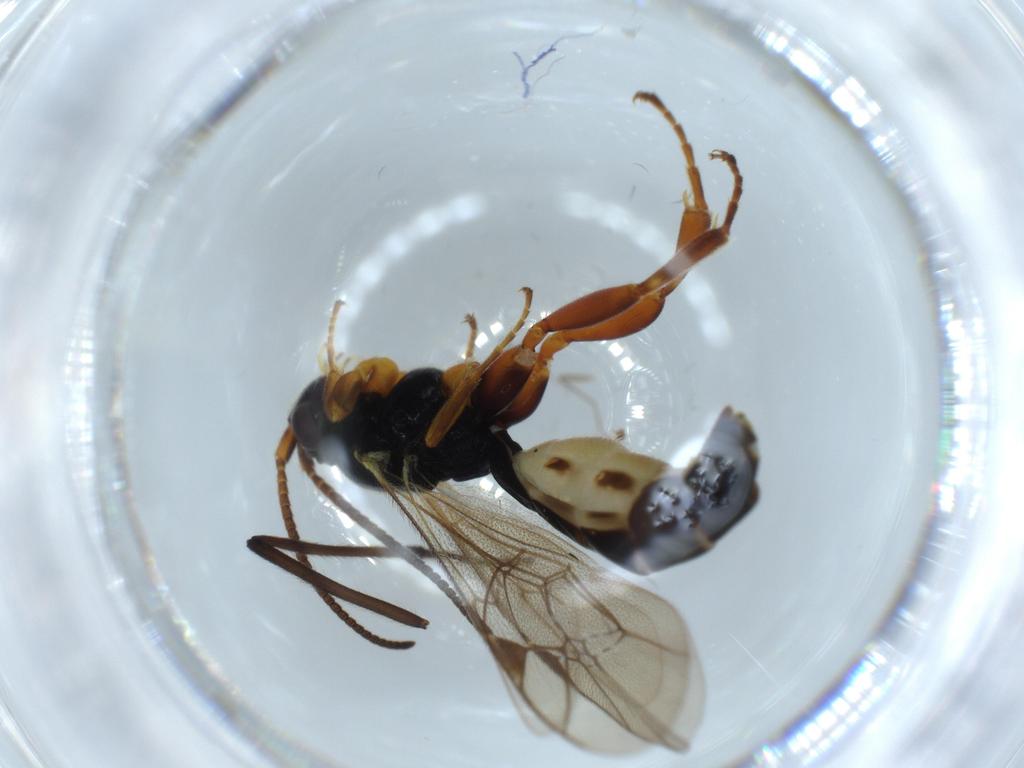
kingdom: Animalia
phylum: Arthropoda
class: Insecta
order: Hymenoptera
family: Ichneumonidae
